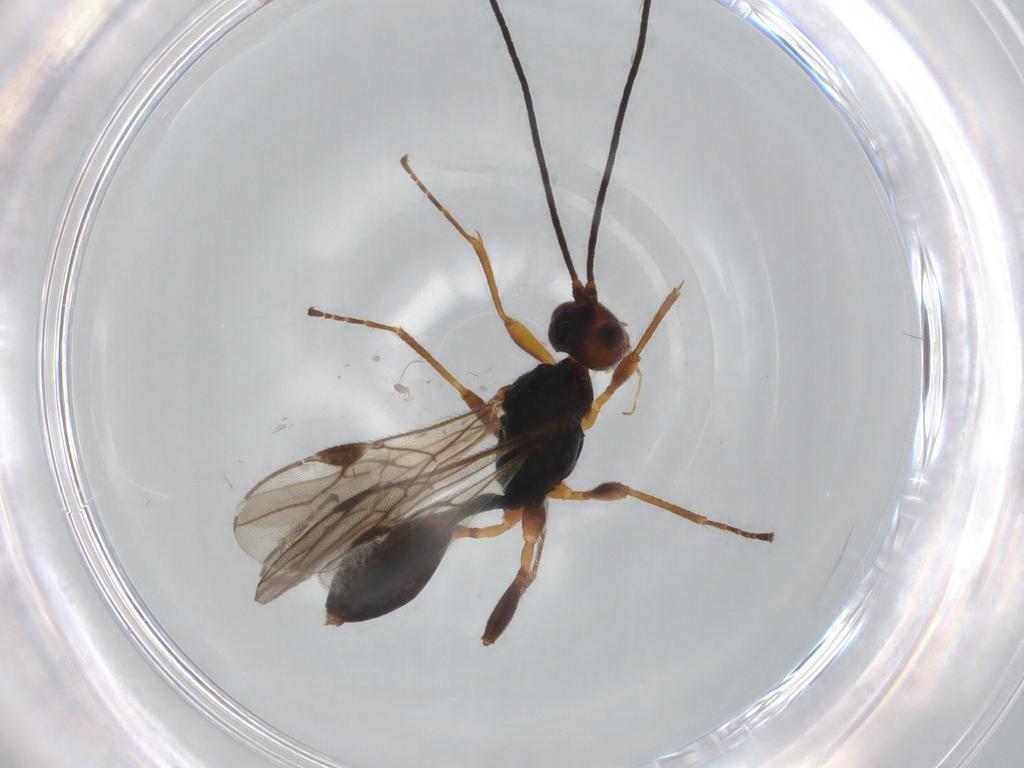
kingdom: Animalia
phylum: Arthropoda
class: Insecta
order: Hymenoptera
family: Braconidae
